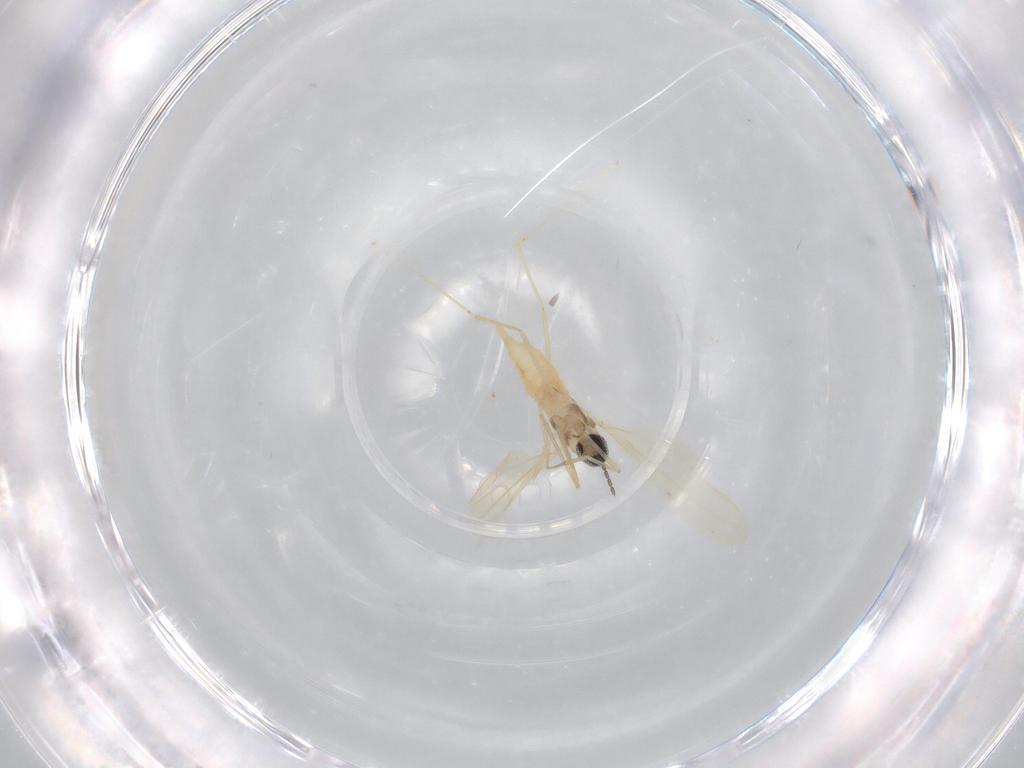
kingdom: Animalia
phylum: Arthropoda
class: Insecta
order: Diptera
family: Cecidomyiidae
